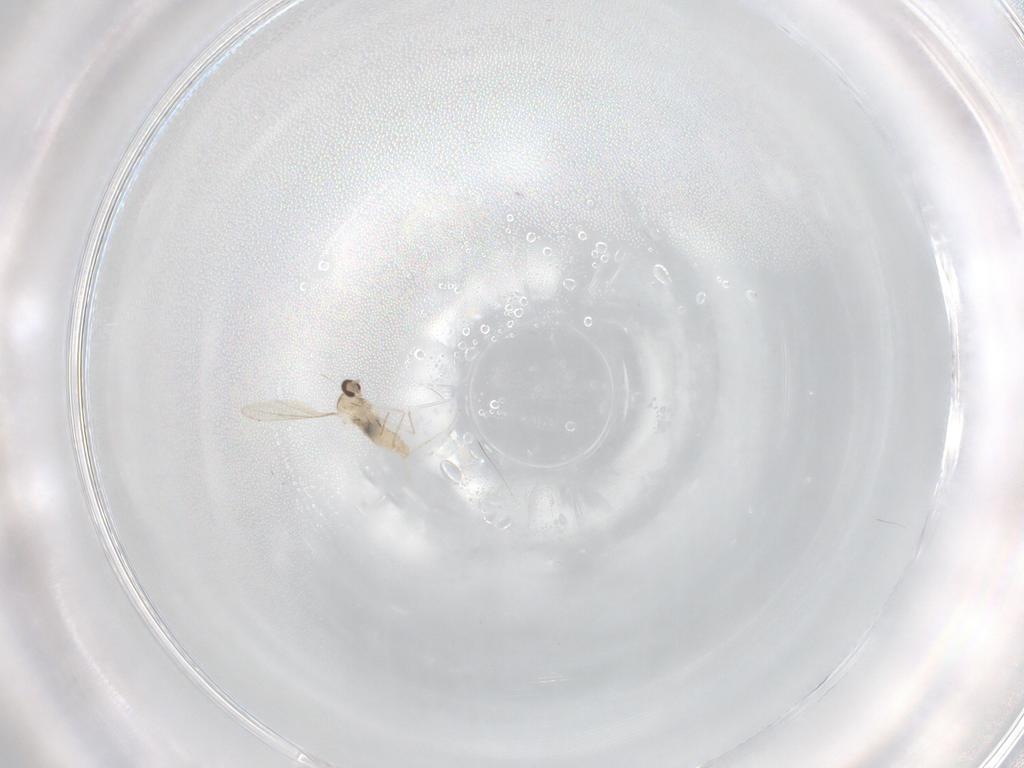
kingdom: Animalia
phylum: Arthropoda
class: Insecta
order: Diptera
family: Cecidomyiidae
